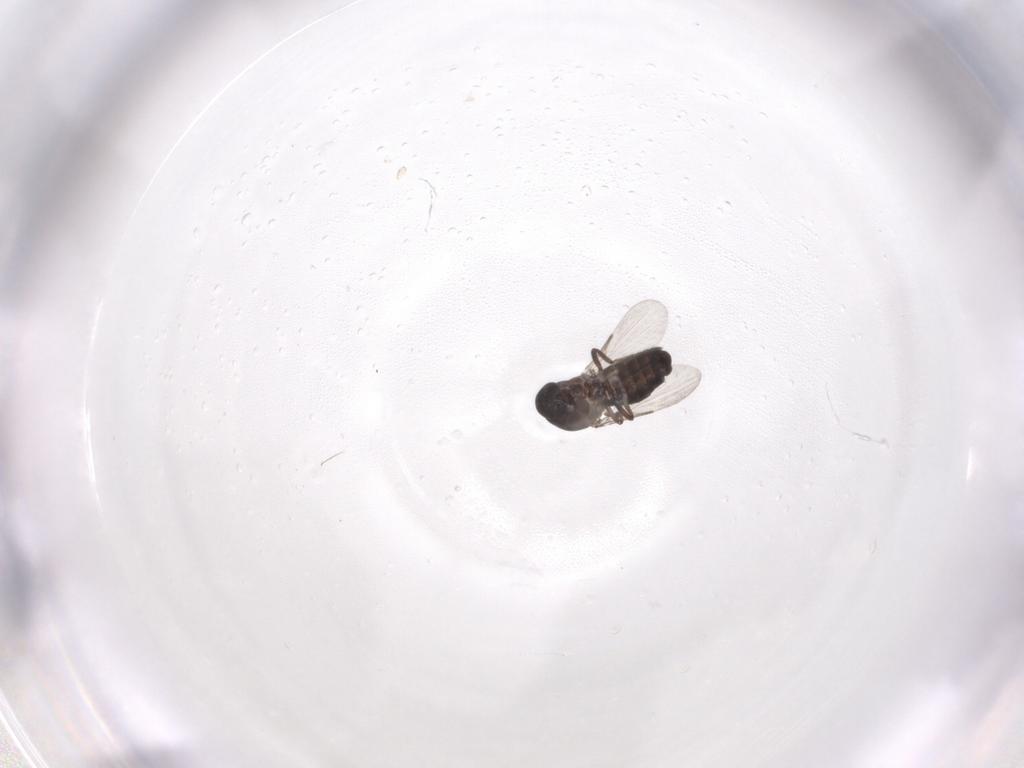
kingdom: Animalia
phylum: Arthropoda
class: Insecta
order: Diptera
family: Ceratopogonidae
